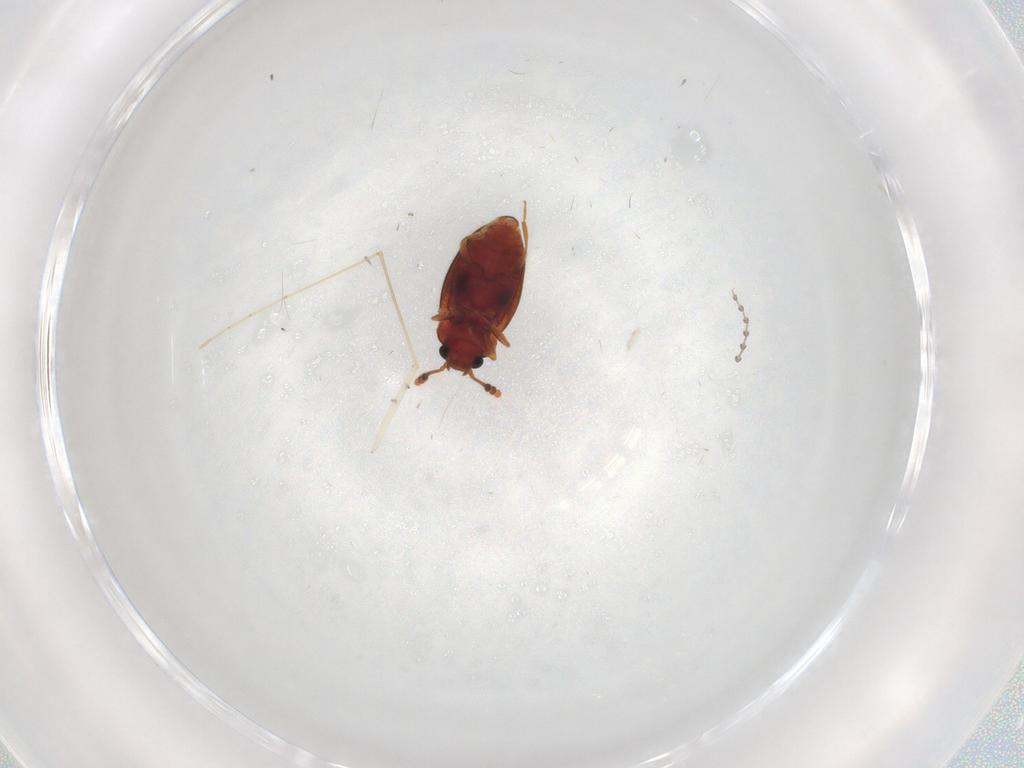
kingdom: Animalia
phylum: Arthropoda
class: Insecta
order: Coleoptera
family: Erotylidae
